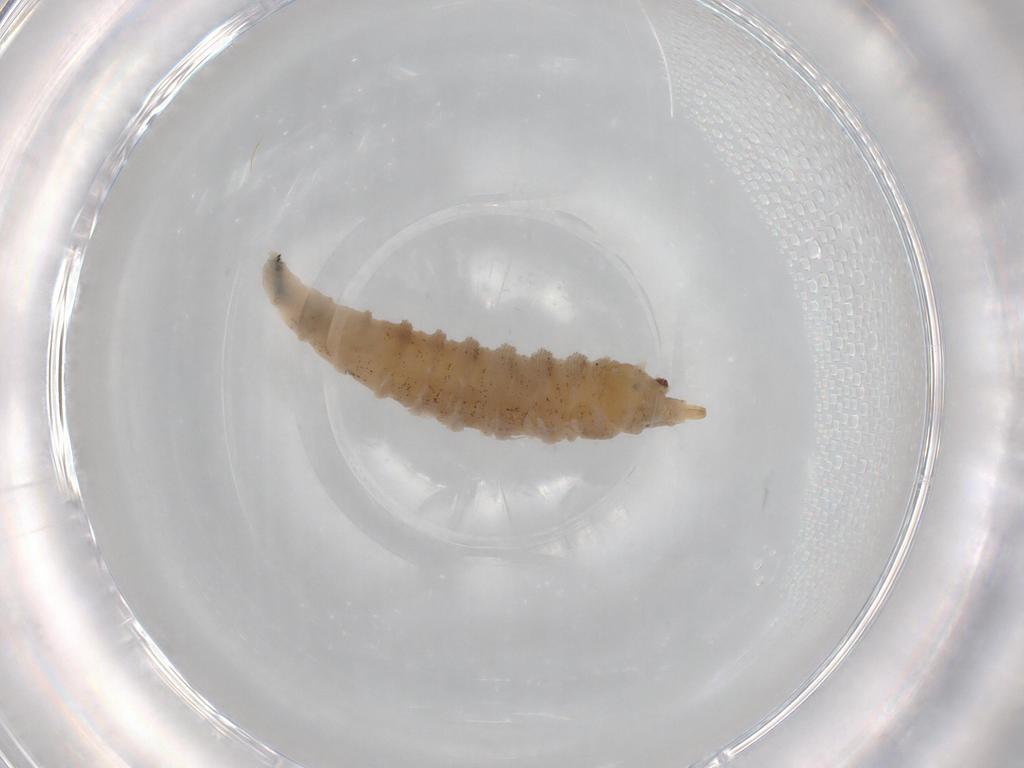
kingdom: Animalia
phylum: Arthropoda
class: Insecta
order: Diptera
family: Drosophilidae
